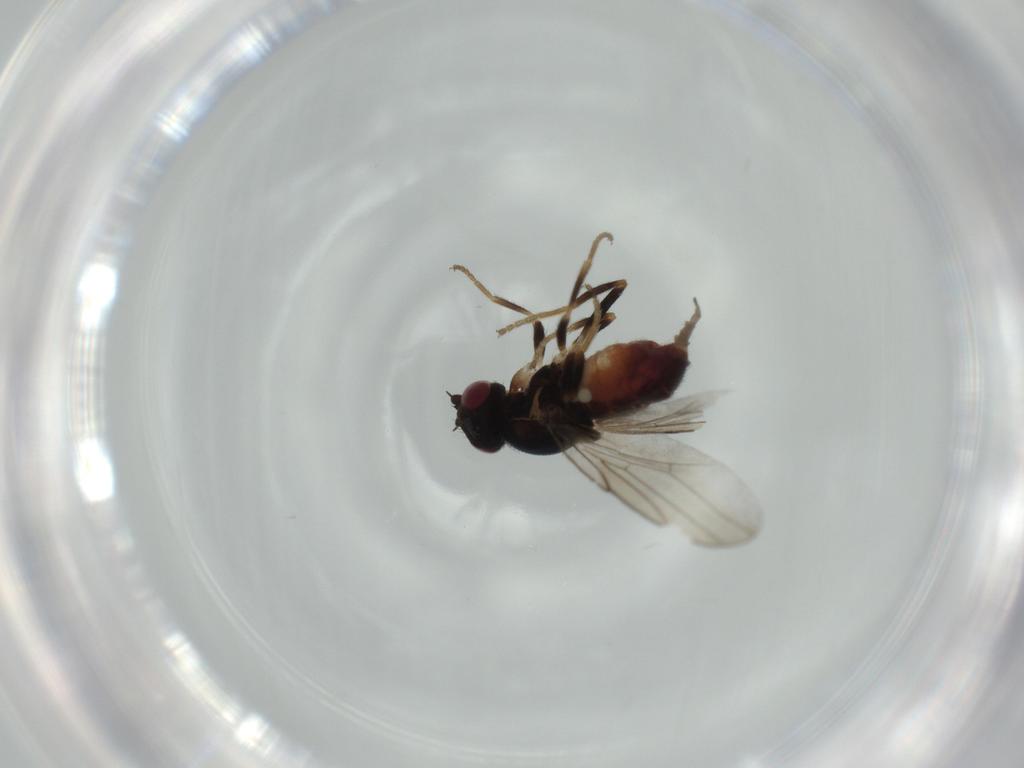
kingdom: Animalia
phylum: Arthropoda
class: Insecta
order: Diptera
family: Chloropidae
